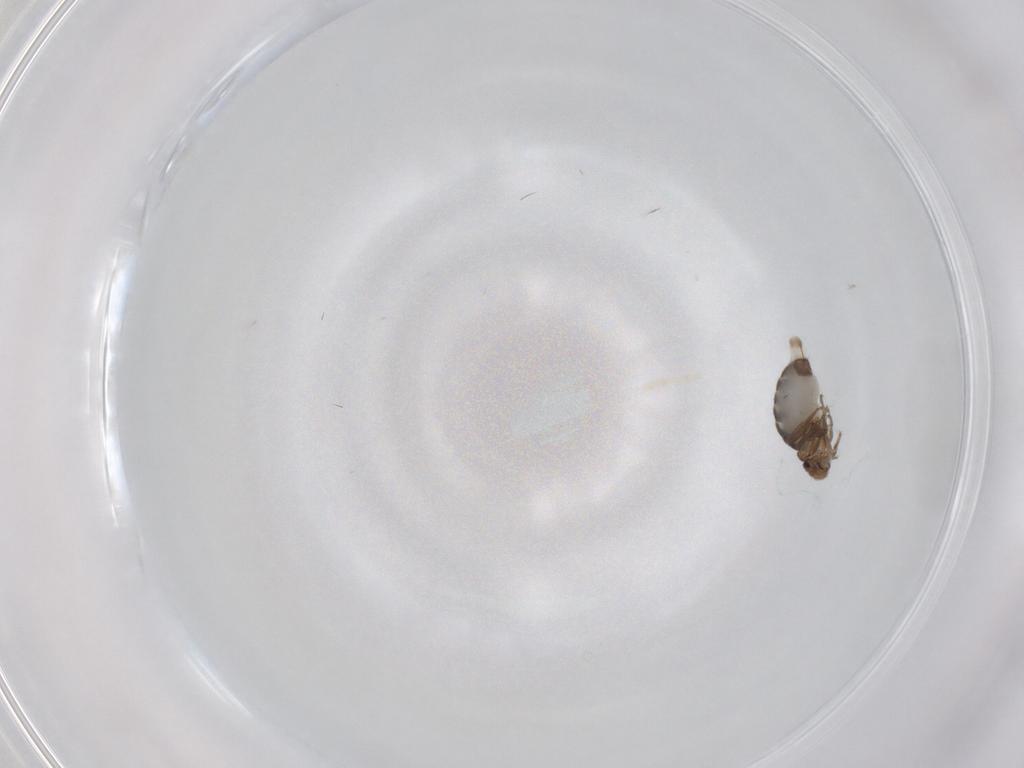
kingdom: Animalia
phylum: Arthropoda
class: Insecta
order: Diptera
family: Phoridae
